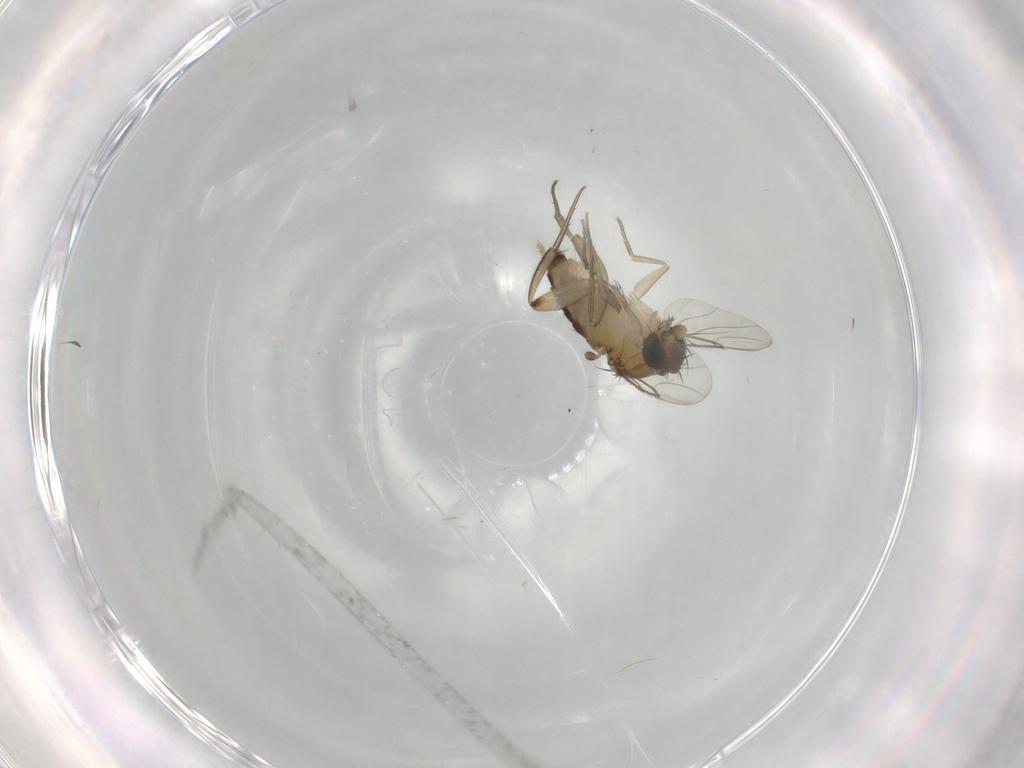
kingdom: Animalia
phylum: Arthropoda
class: Insecta
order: Diptera
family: Phoridae
